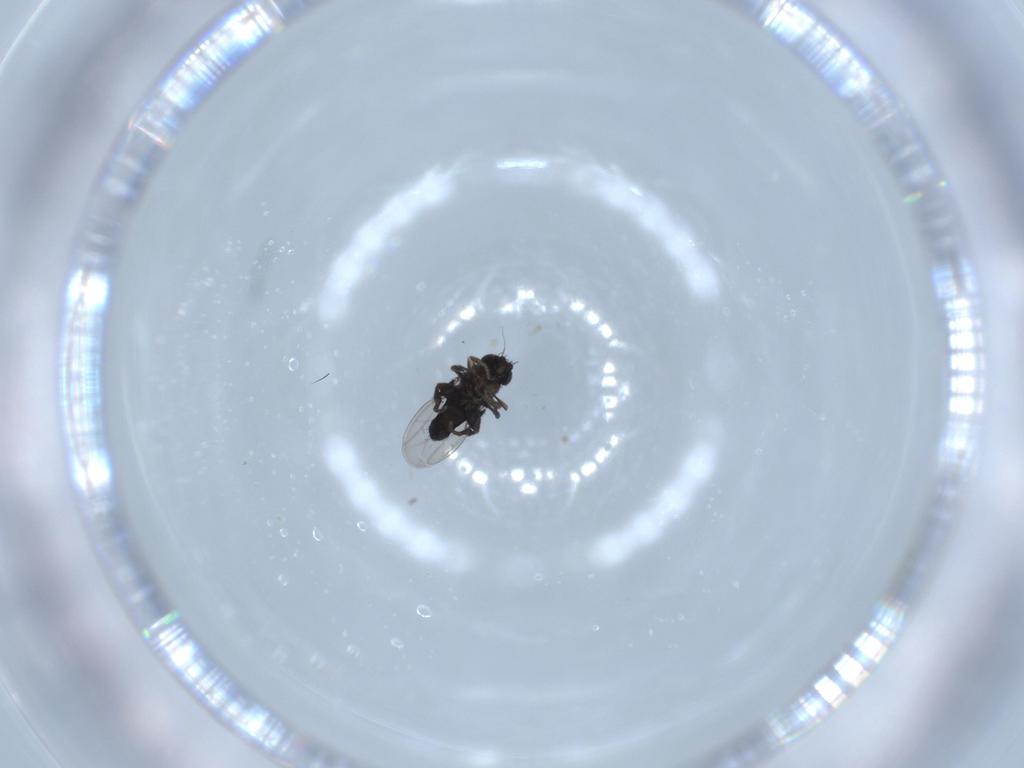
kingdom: Animalia
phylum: Arthropoda
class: Insecta
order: Diptera
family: Phoridae
